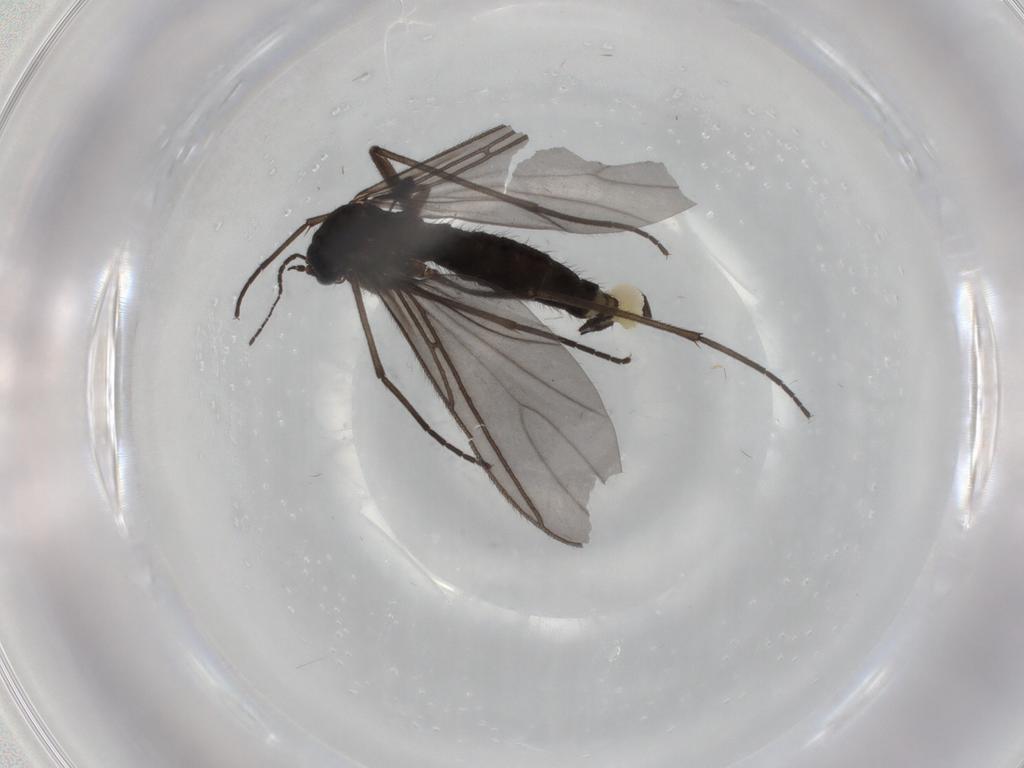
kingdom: Animalia
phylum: Arthropoda
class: Insecta
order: Diptera
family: Sciaridae
